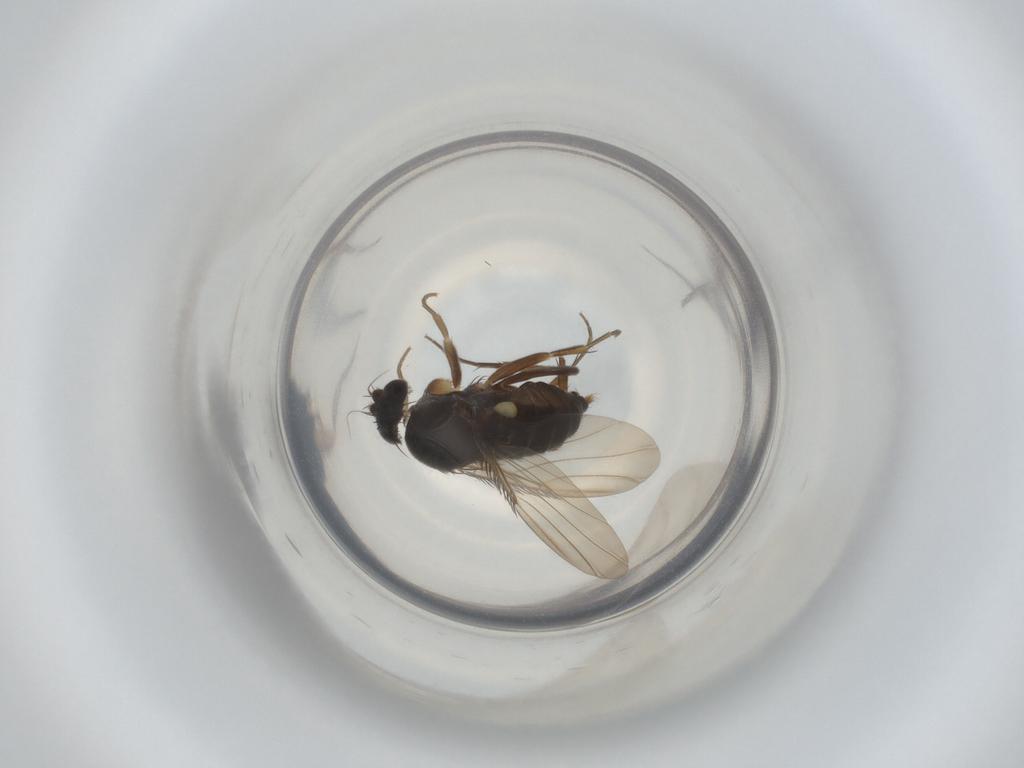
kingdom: Animalia
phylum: Arthropoda
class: Insecta
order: Diptera
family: Phoridae
